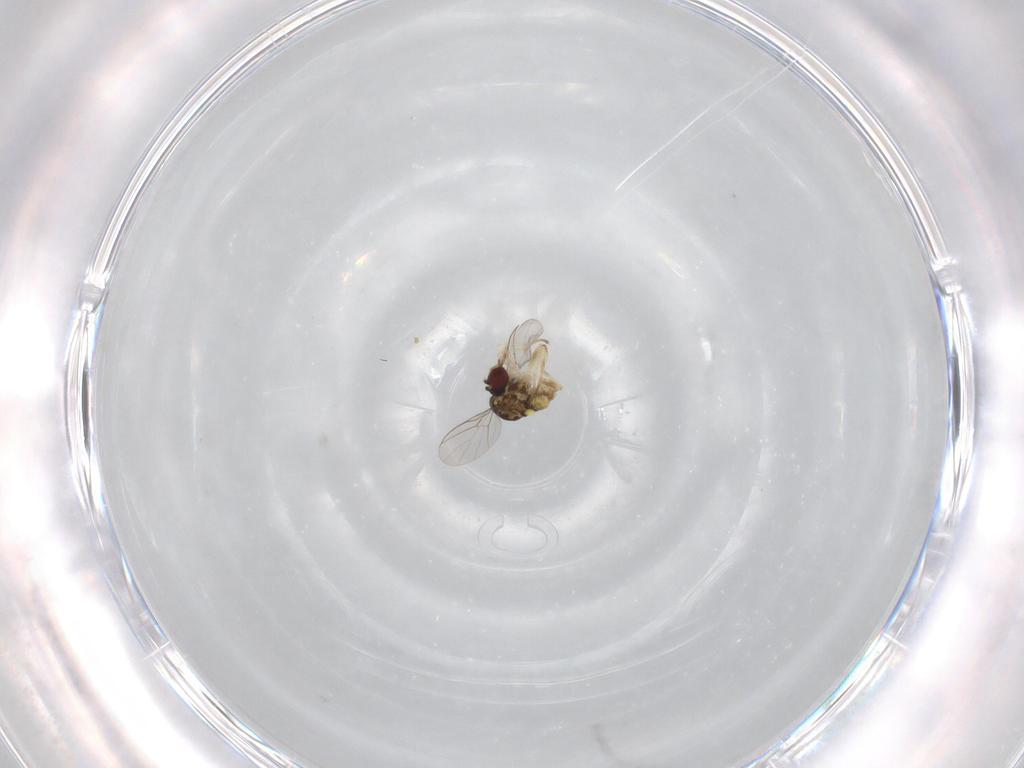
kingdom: Animalia
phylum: Arthropoda
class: Insecta
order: Diptera
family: Bombyliidae
